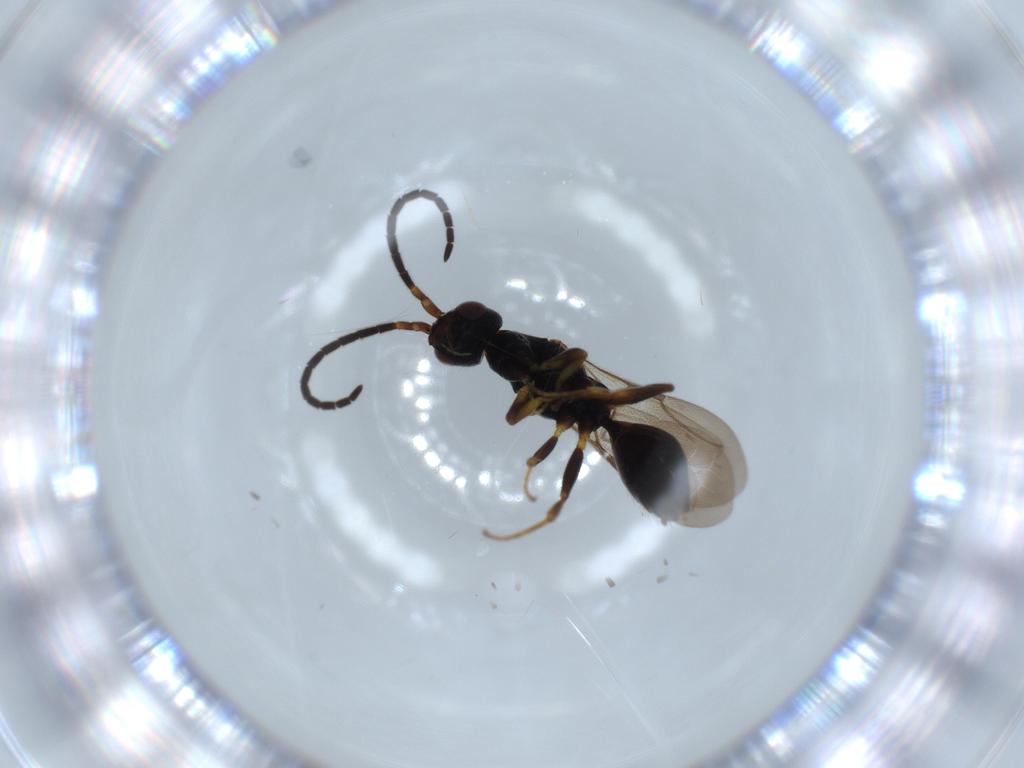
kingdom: Animalia
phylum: Arthropoda
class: Insecta
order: Hymenoptera
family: Bethylidae
